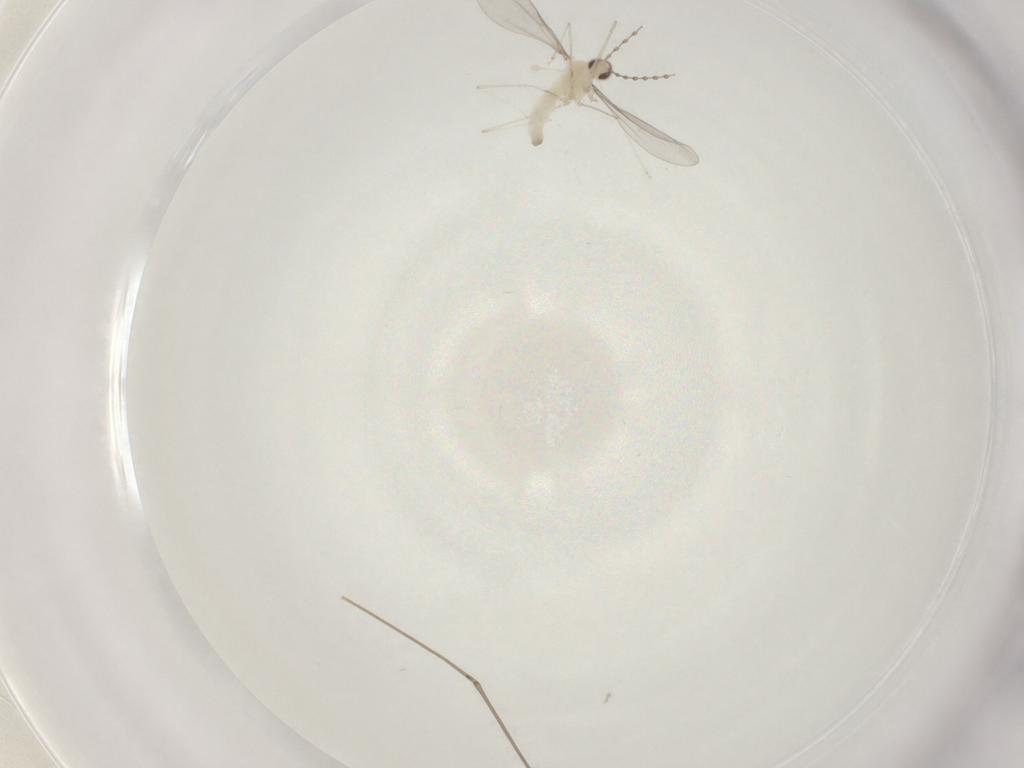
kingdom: Animalia
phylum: Arthropoda
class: Insecta
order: Diptera
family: Cecidomyiidae
